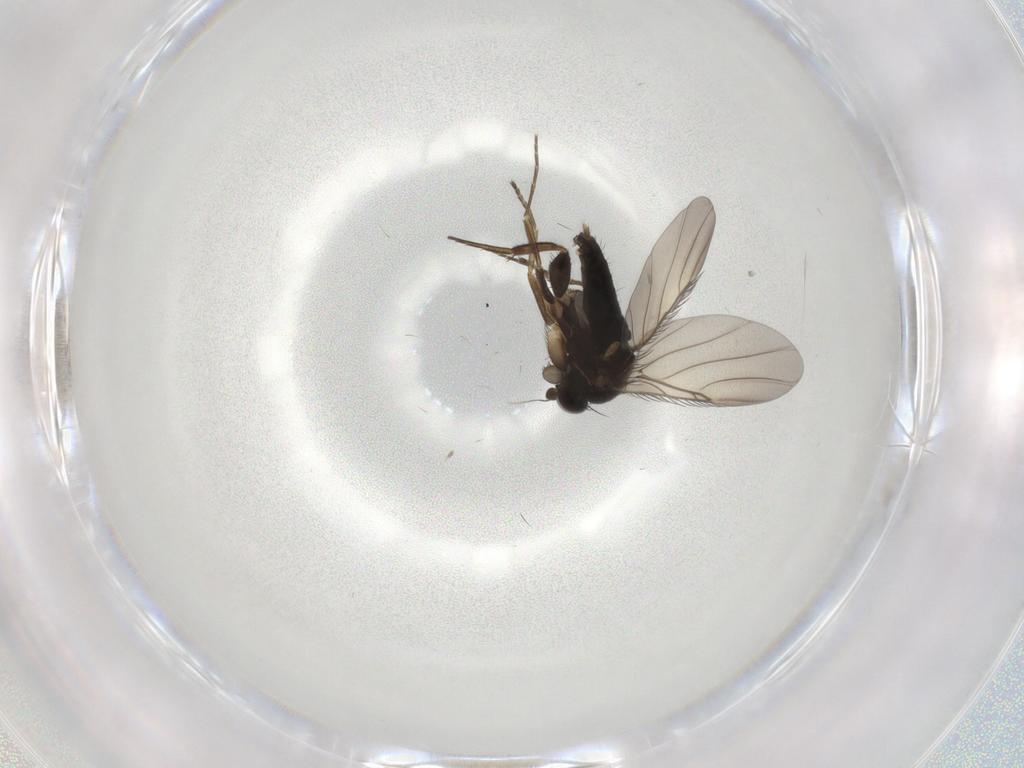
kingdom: Animalia
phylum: Arthropoda
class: Insecta
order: Diptera
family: Phoridae
